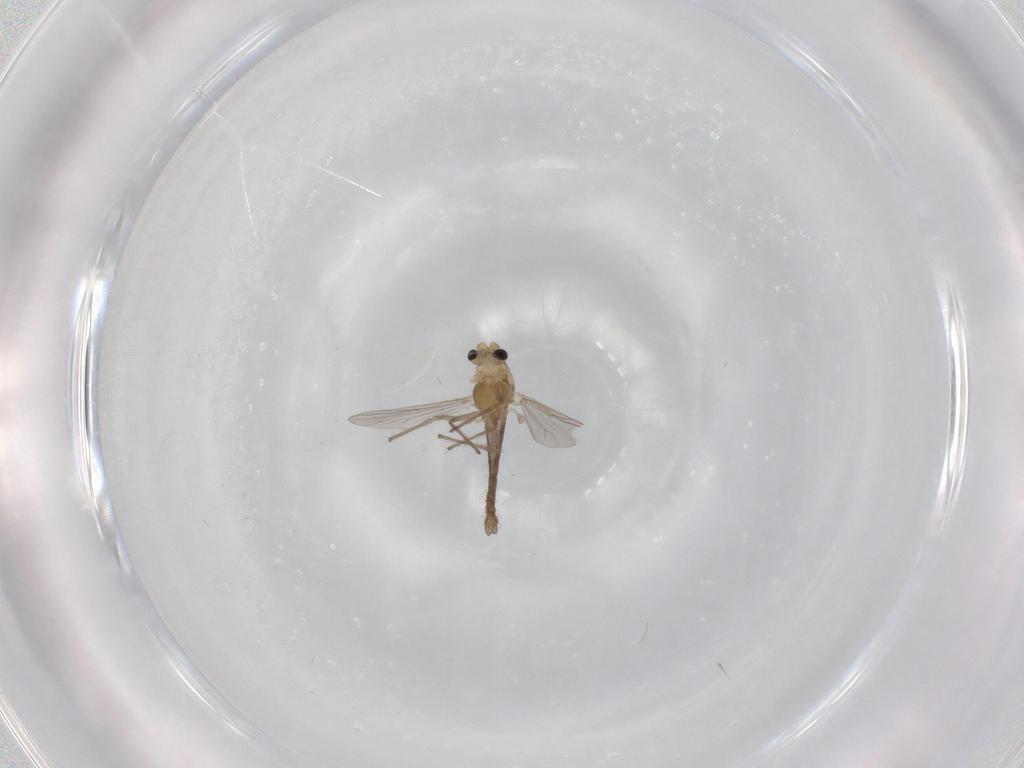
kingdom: Animalia
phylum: Arthropoda
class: Insecta
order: Diptera
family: Chironomidae
